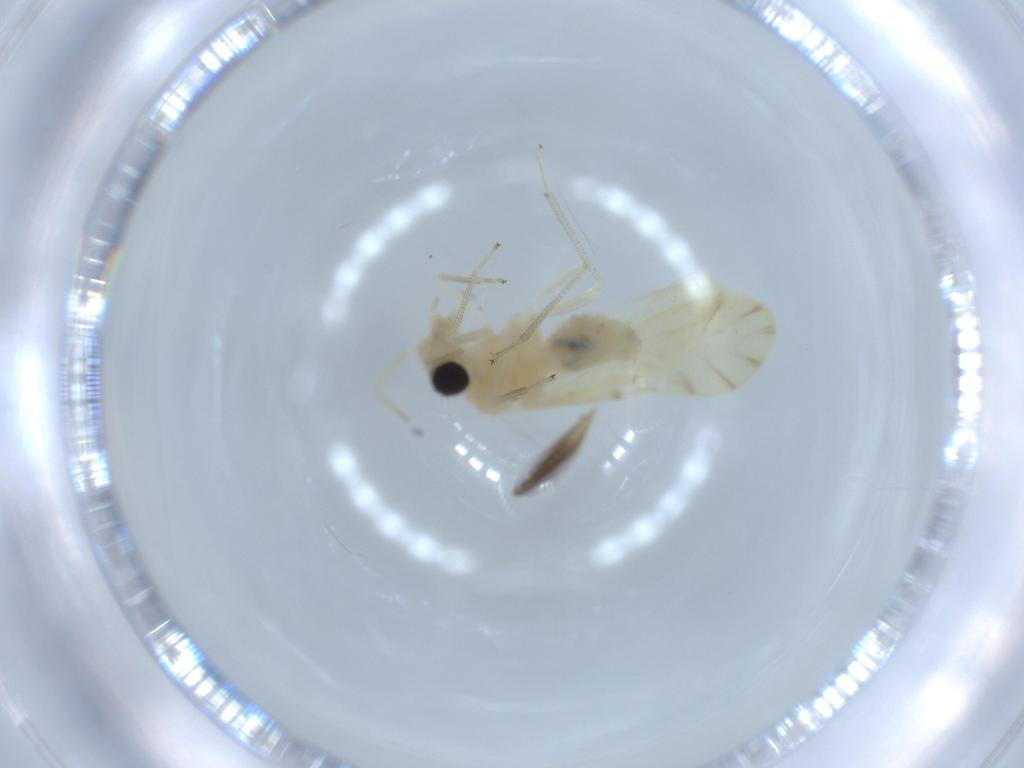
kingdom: Animalia
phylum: Arthropoda
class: Insecta
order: Psocodea
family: Caeciliusidae
